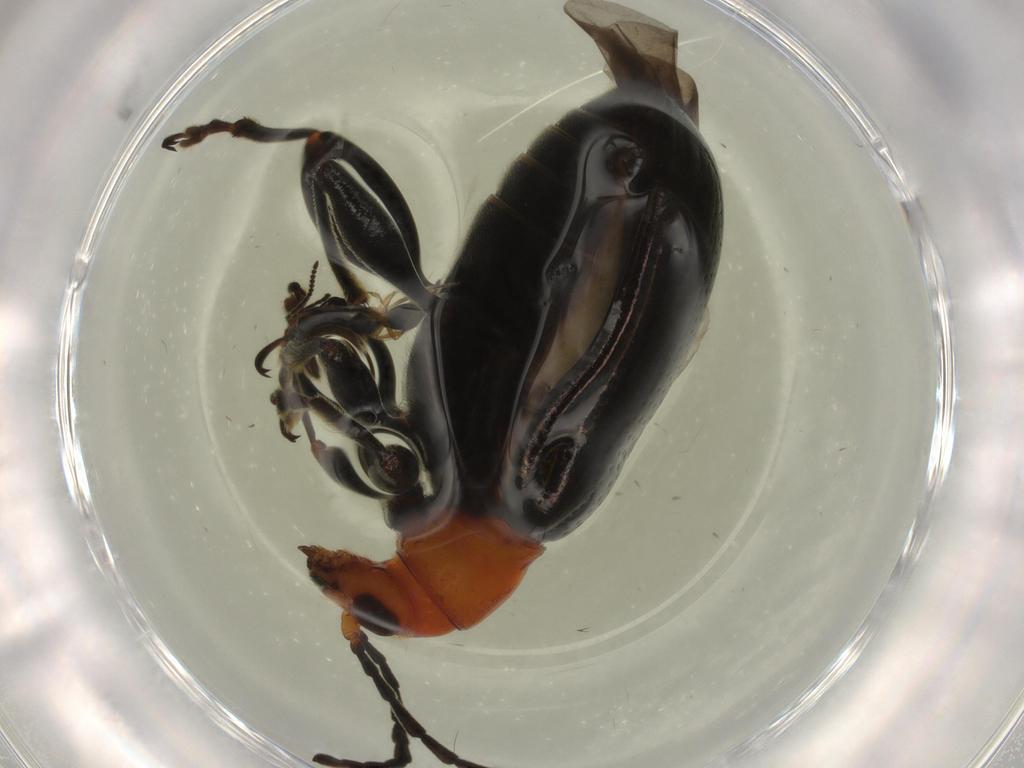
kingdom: Animalia
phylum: Arthropoda
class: Insecta
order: Coleoptera
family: Chrysomelidae
